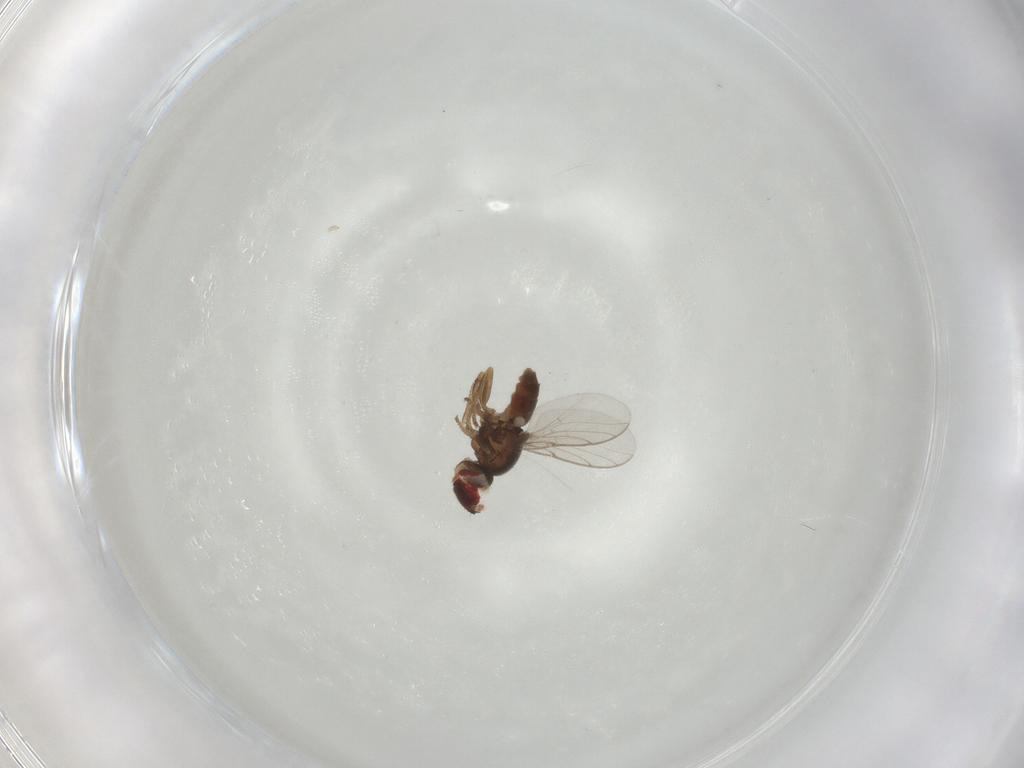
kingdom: Animalia
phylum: Arthropoda
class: Insecta
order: Diptera
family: Chloropidae
